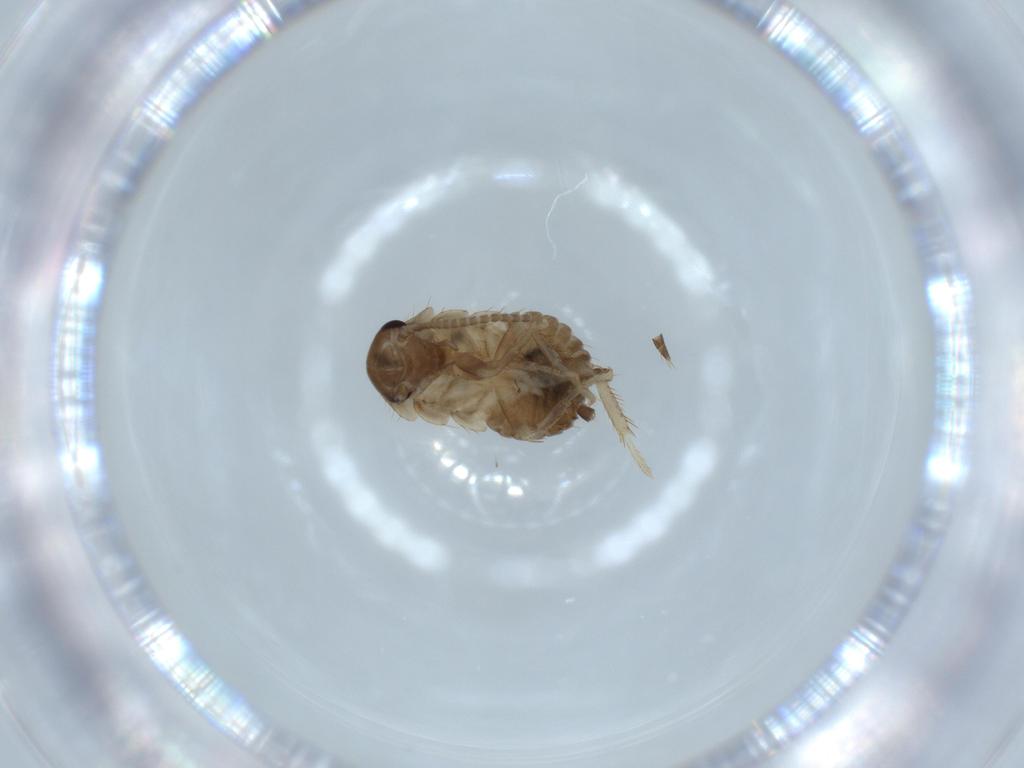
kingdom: Animalia
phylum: Arthropoda
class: Insecta
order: Blattodea
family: Ectobiidae
